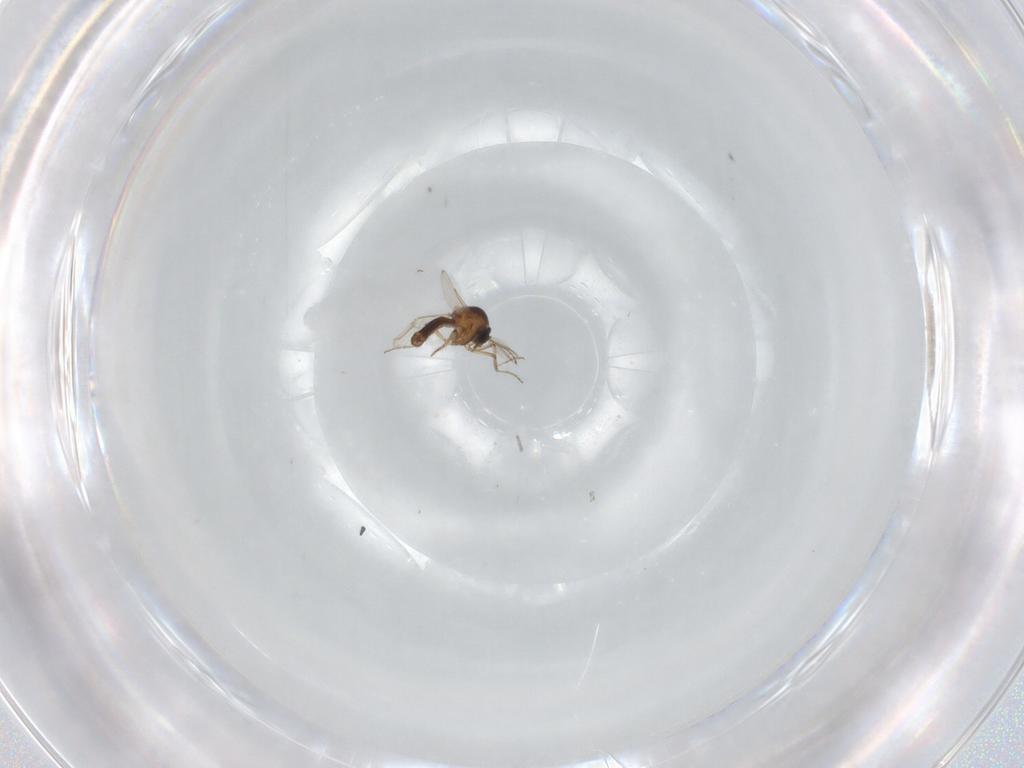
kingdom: Animalia
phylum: Arthropoda
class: Insecta
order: Diptera
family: Ceratopogonidae
